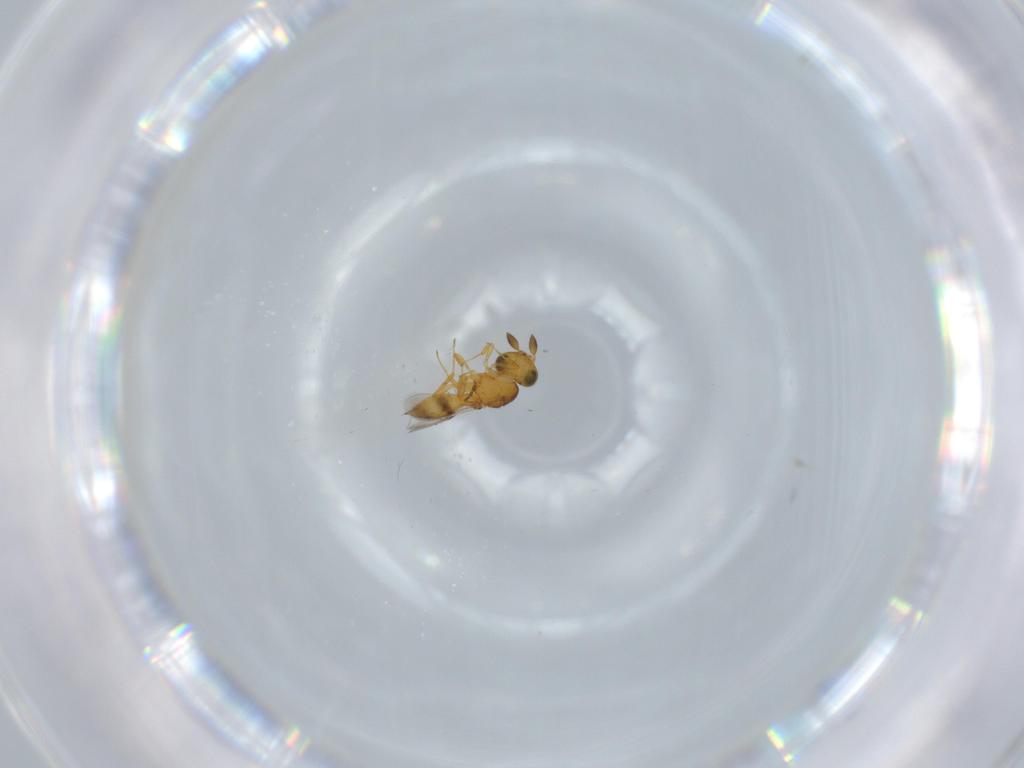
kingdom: Animalia
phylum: Arthropoda
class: Insecta
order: Hymenoptera
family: Scelionidae
